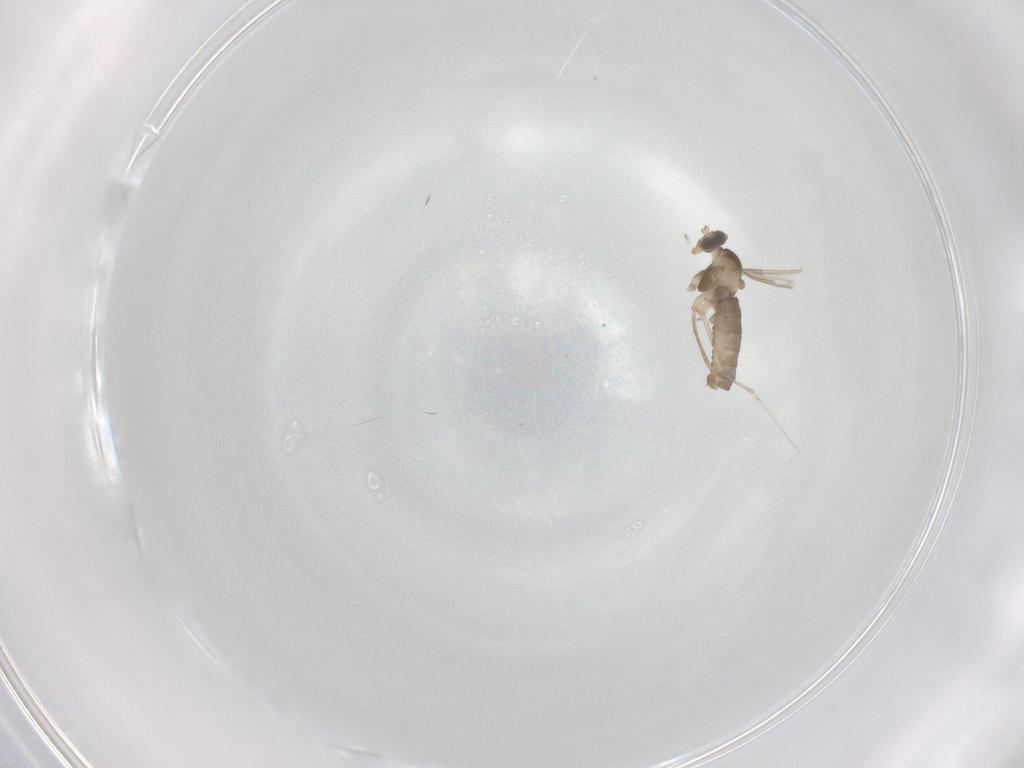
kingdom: Animalia
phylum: Arthropoda
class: Insecta
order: Diptera
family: Cecidomyiidae
